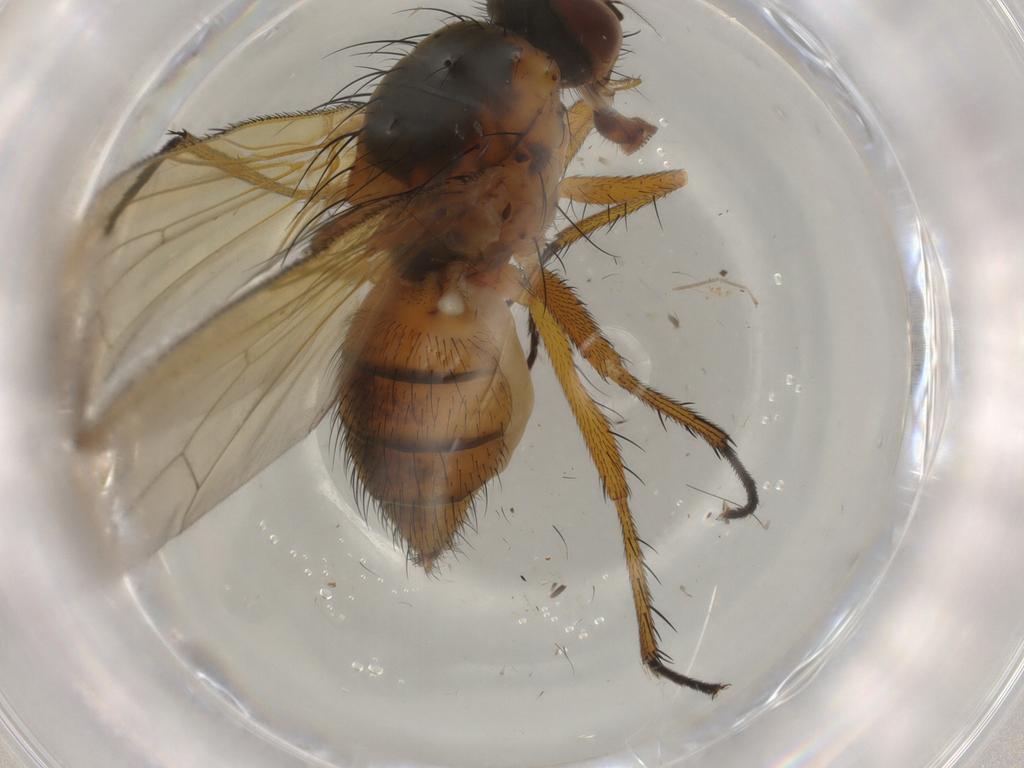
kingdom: Animalia
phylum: Arthropoda
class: Insecta
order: Diptera
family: Anthomyiidae
